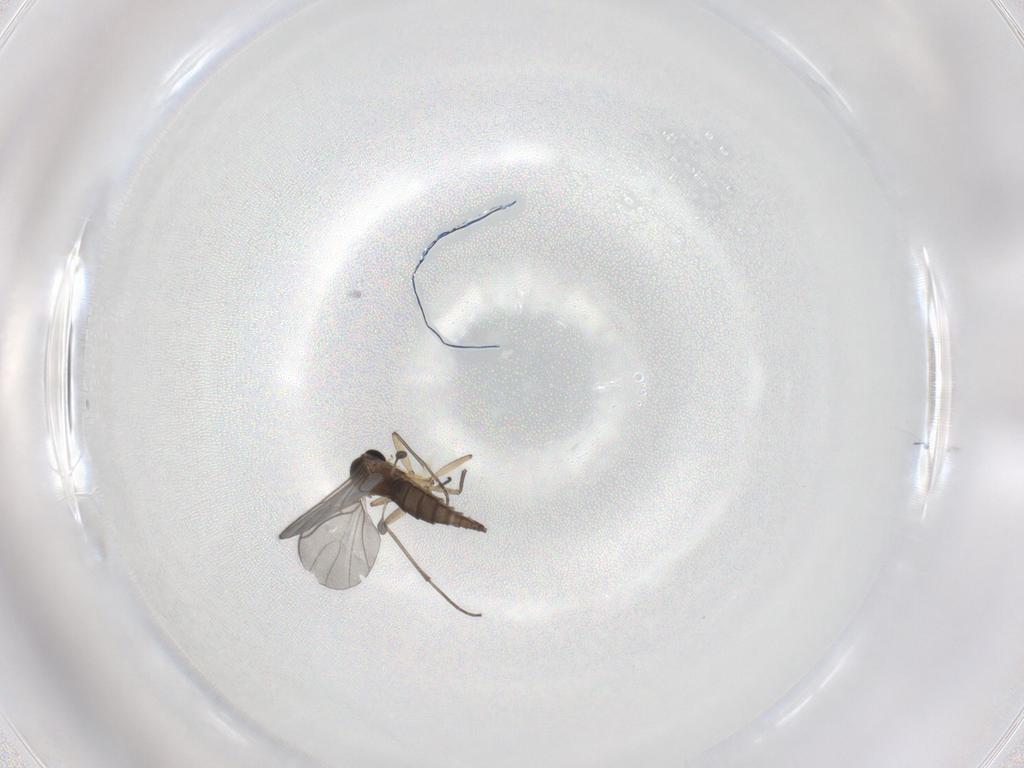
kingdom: Animalia
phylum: Arthropoda
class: Insecta
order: Diptera
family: Sciaridae
